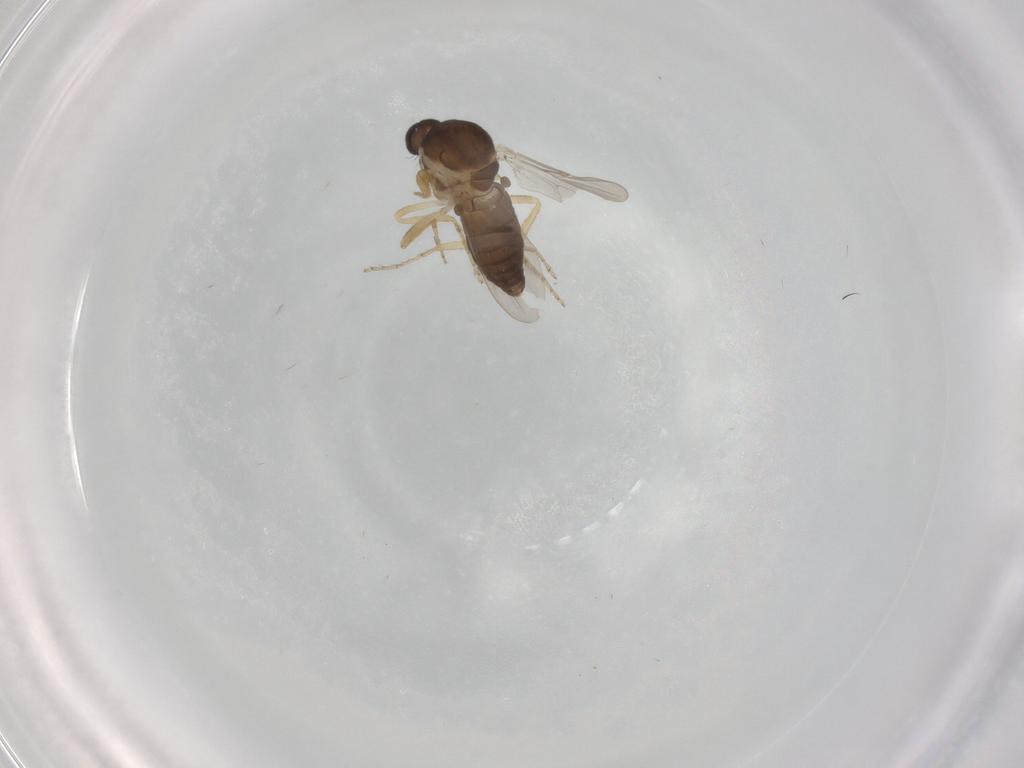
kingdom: Animalia
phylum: Arthropoda
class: Insecta
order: Diptera
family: Ceratopogonidae
